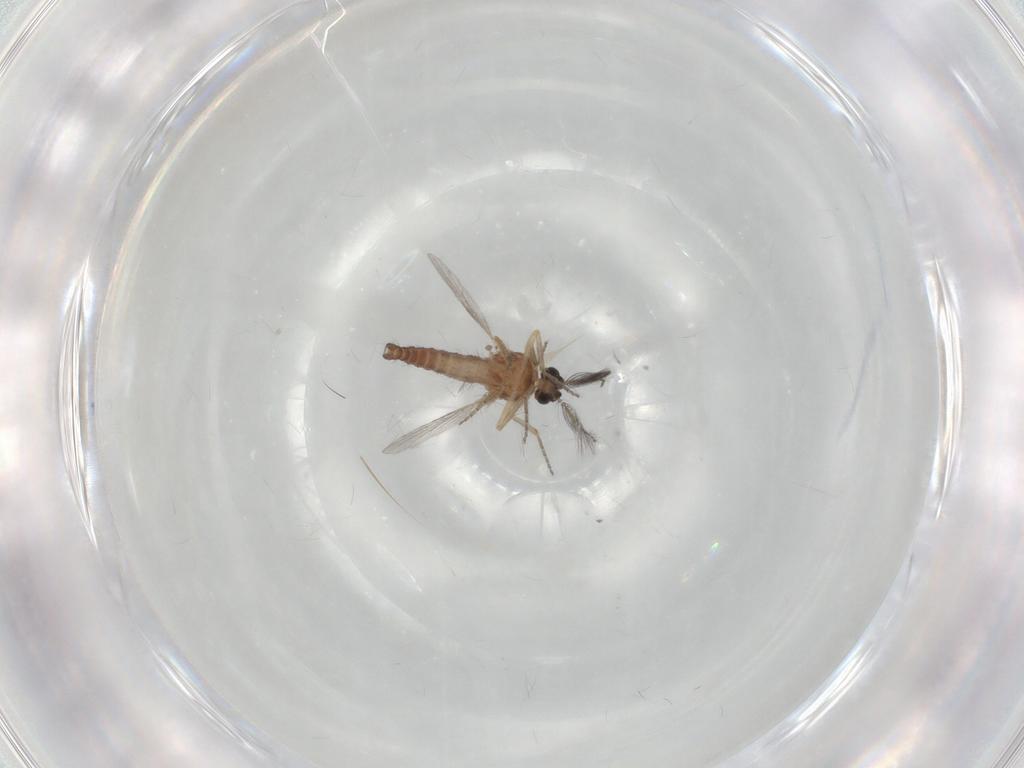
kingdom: Animalia
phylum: Arthropoda
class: Insecta
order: Diptera
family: Ceratopogonidae
